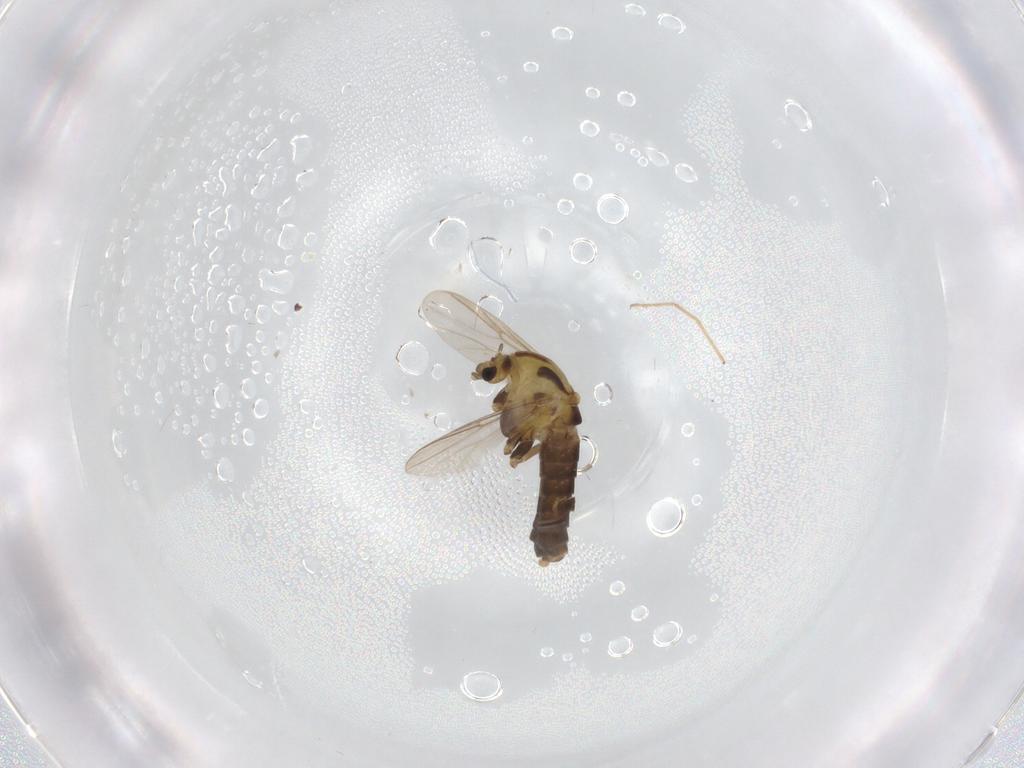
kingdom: Animalia
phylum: Arthropoda
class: Insecta
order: Diptera
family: Chironomidae
